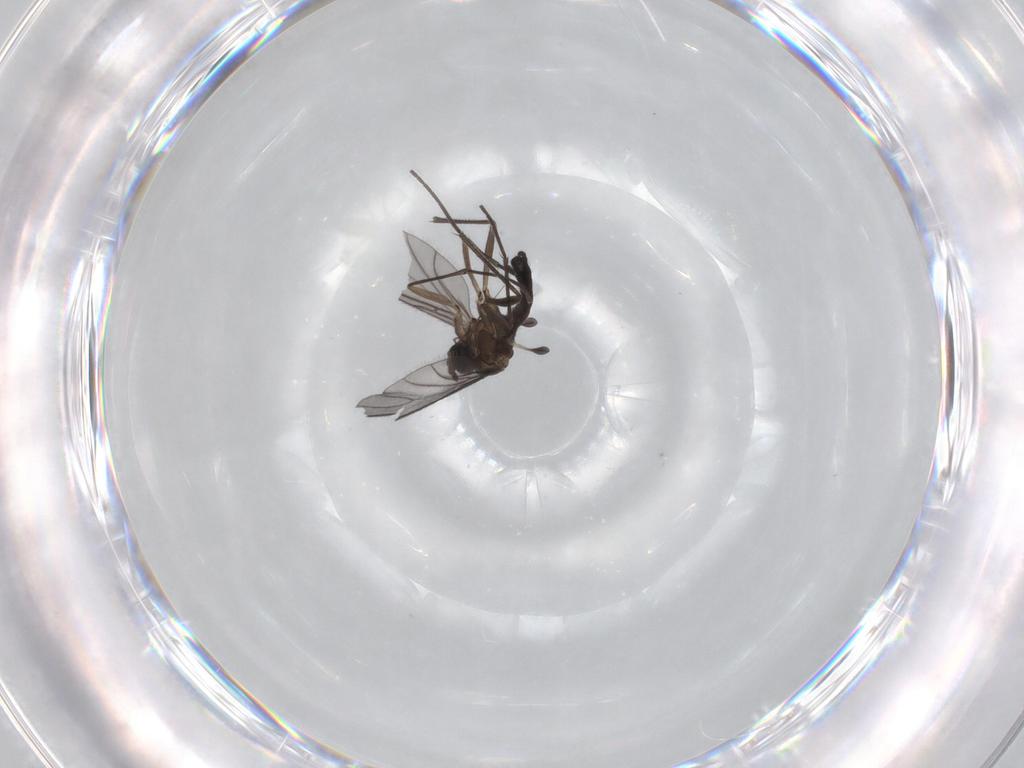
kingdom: Animalia
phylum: Arthropoda
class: Insecta
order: Diptera
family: Sciaridae
